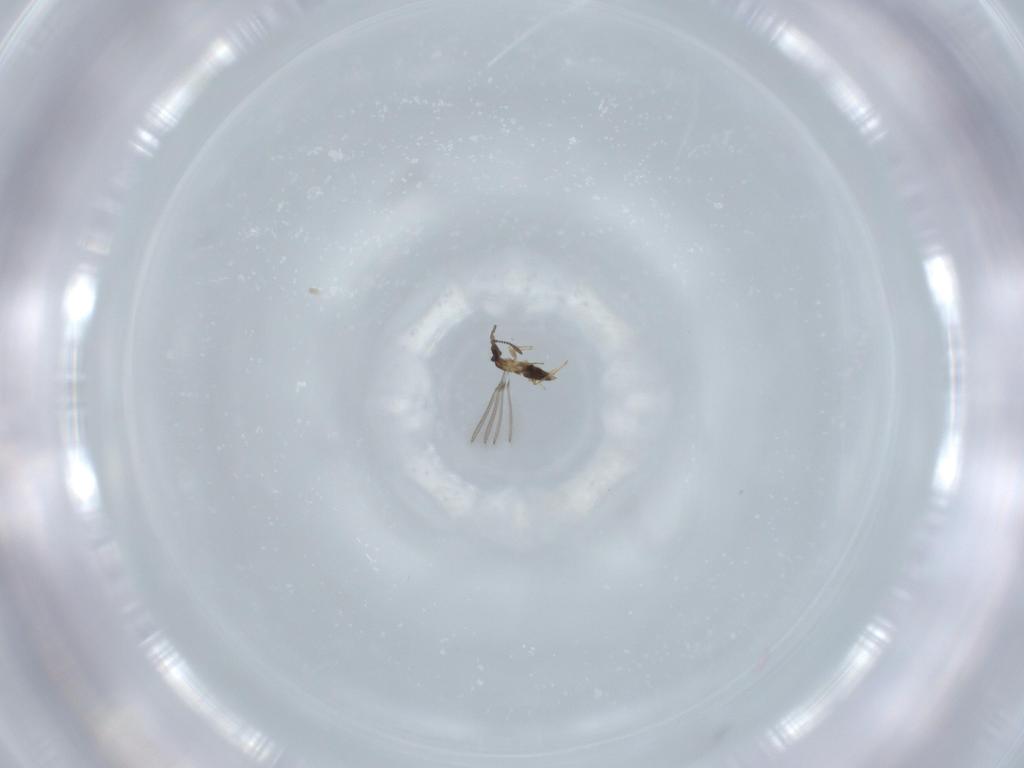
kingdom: Animalia
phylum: Arthropoda
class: Insecta
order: Hymenoptera
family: Scelionidae
